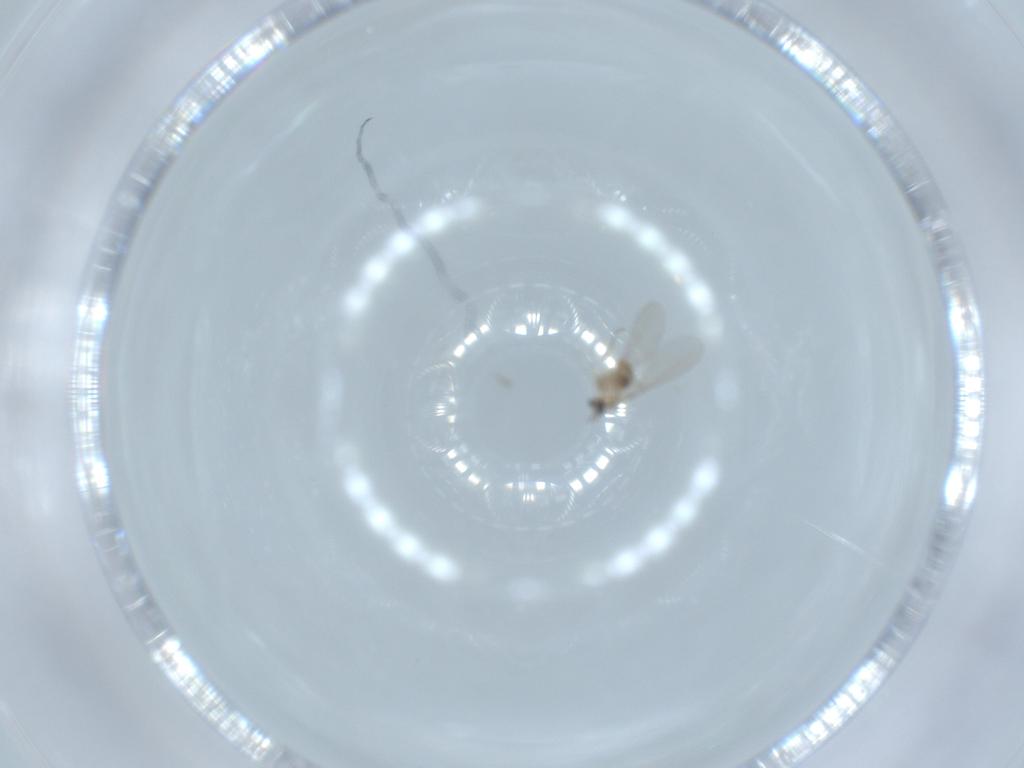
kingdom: Animalia
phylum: Arthropoda
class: Insecta
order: Diptera
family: Cecidomyiidae
